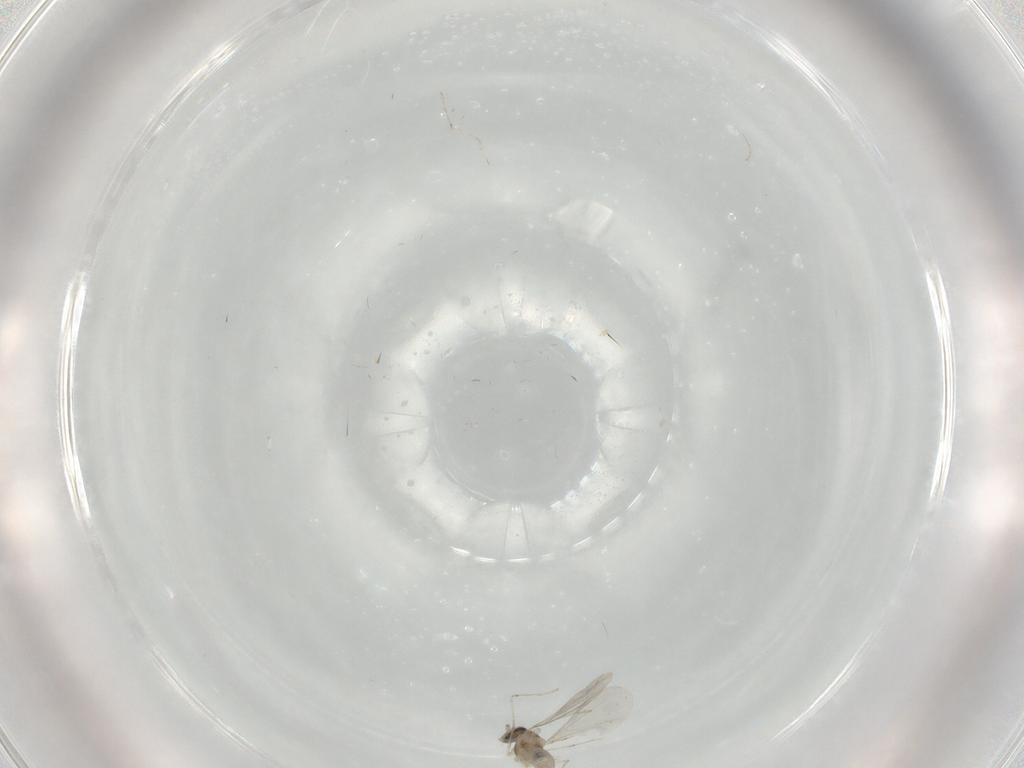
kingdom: Animalia
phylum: Arthropoda
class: Insecta
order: Diptera
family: Cecidomyiidae
